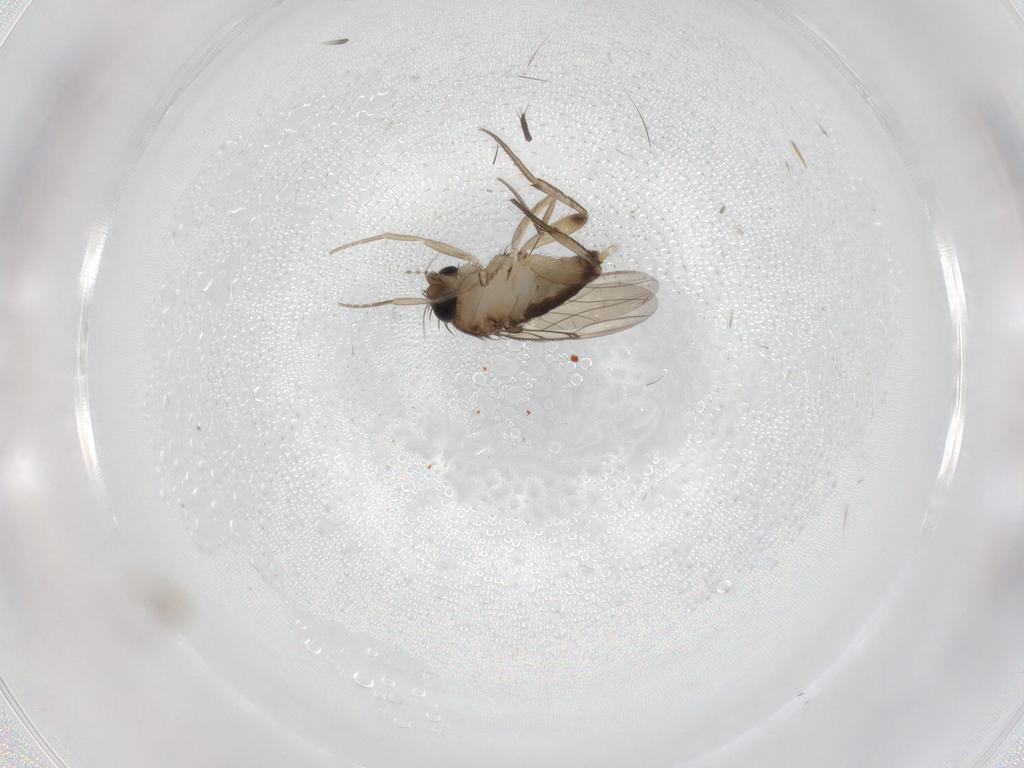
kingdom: Animalia
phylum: Arthropoda
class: Insecta
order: Diptera
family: Phoridae
